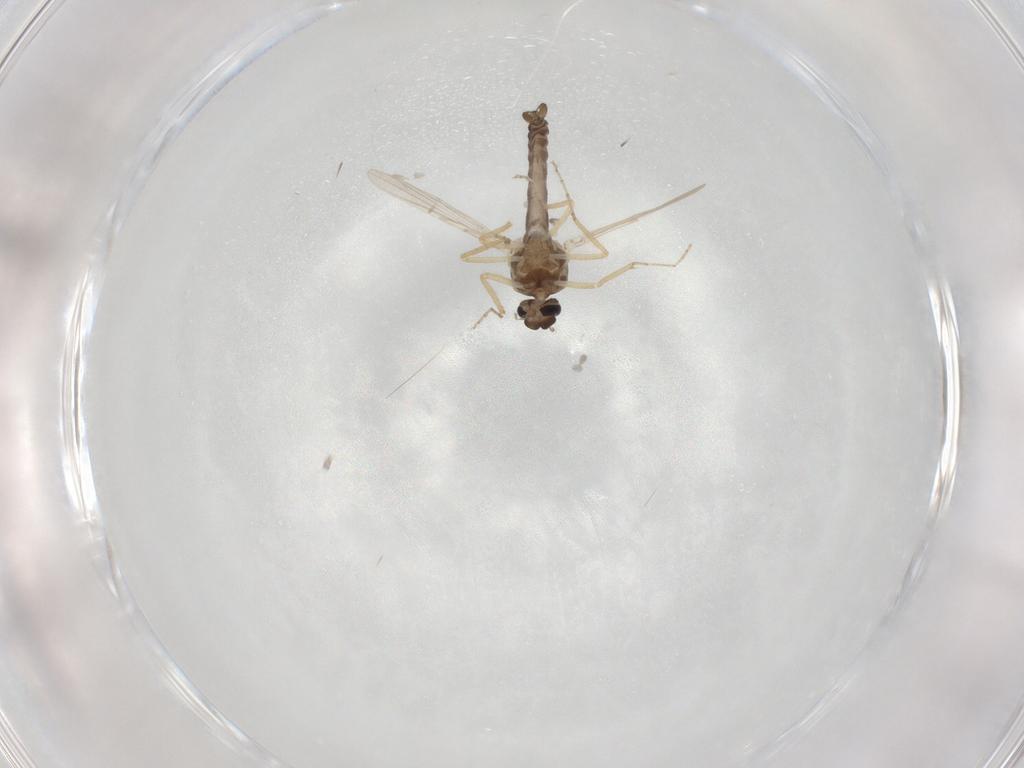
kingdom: Animalia
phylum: Arthropoda
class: Insecta
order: Diptera
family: Ceratopogonidae
